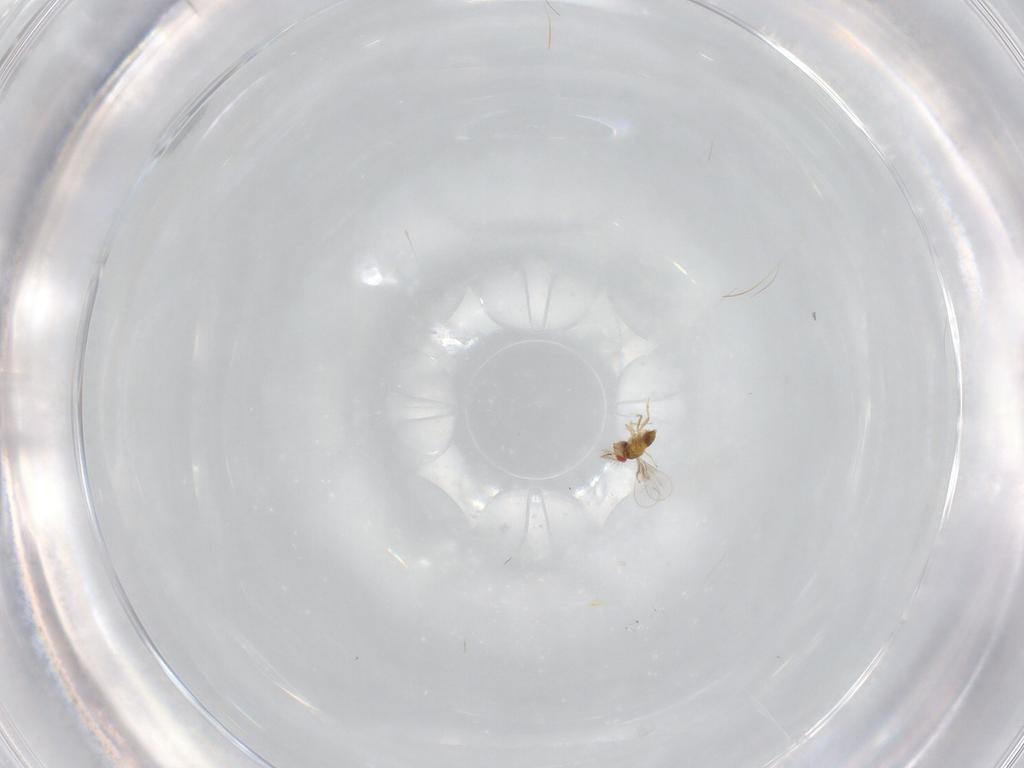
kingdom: Animalia
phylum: Arthropoda
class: Insecta
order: Hymenoptera
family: Trichogrammatidae
